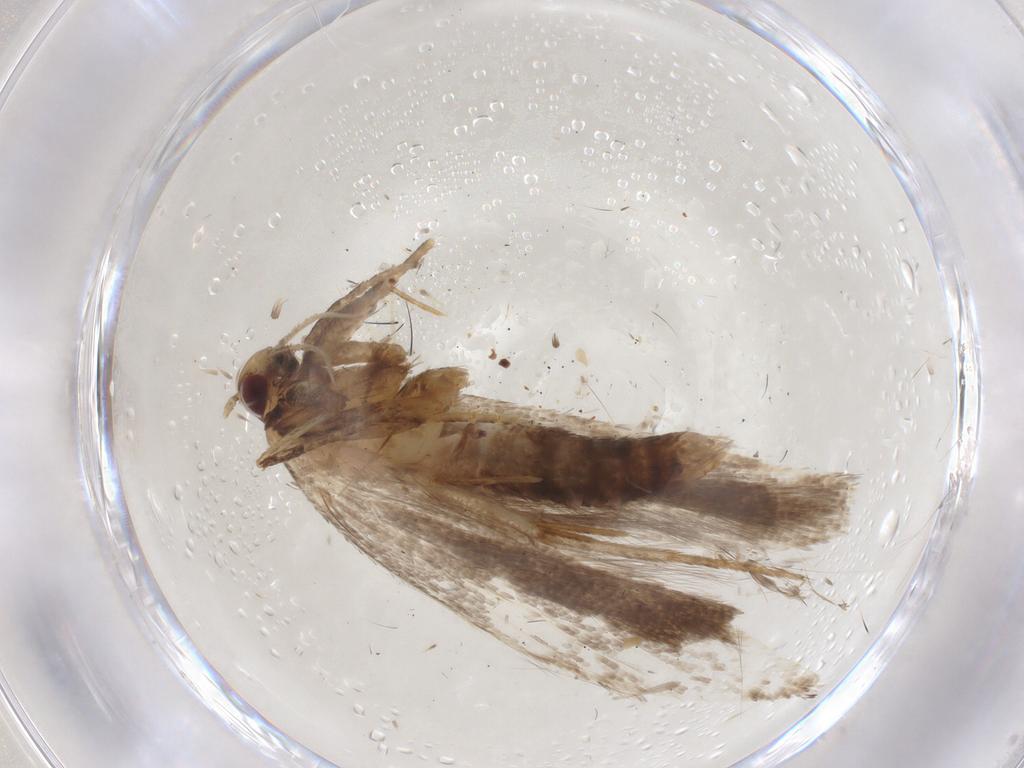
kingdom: Animalia
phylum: Arthropoda
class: Insecta
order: Lepidoptera
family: Gelechiidae
